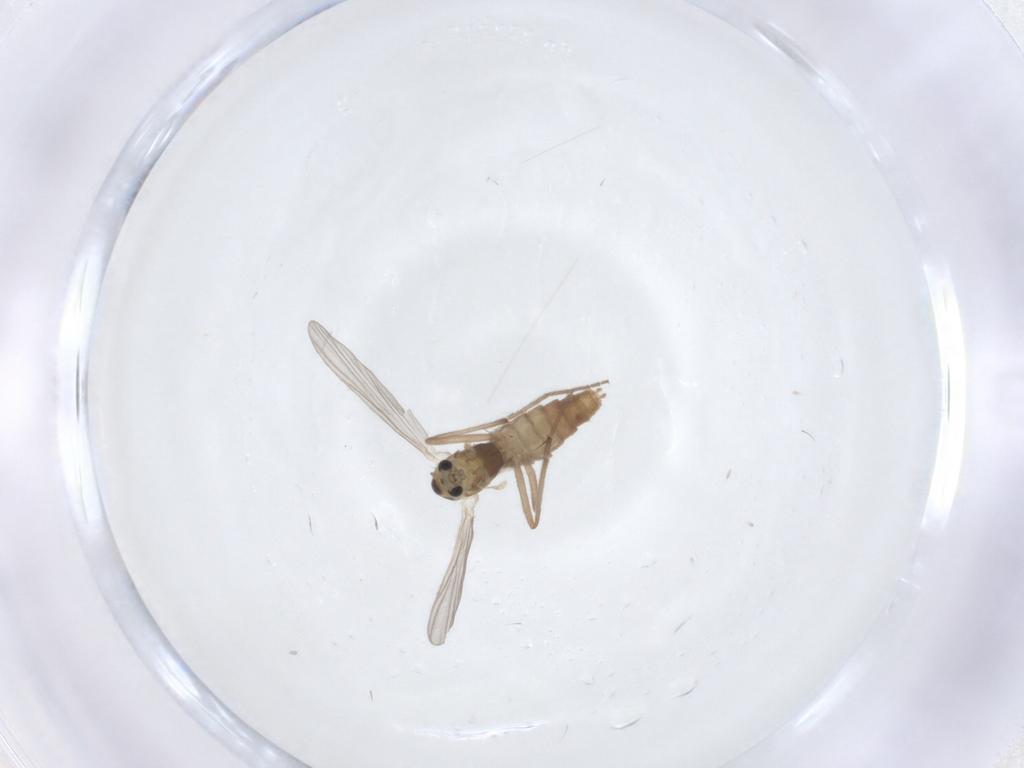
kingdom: Animalia
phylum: Arthropoda
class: Insecta
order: Diptera
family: Chironomidae
